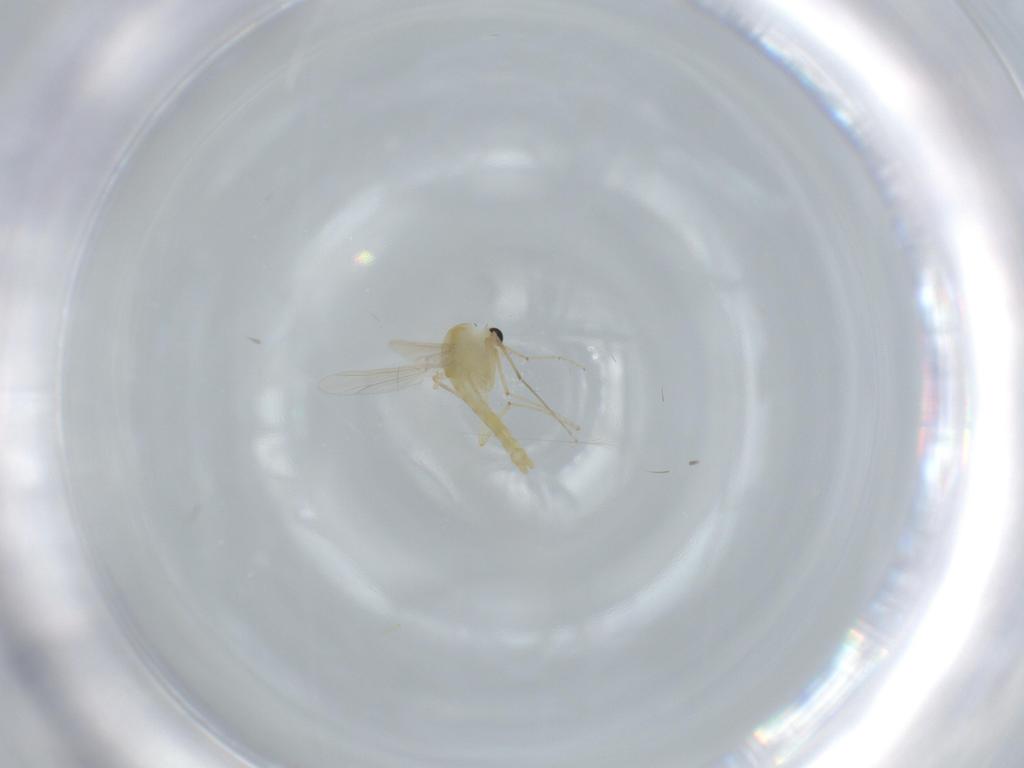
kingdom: Animalia
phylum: Arthropoda
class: Insecta
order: Diptera
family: Chironomidae
